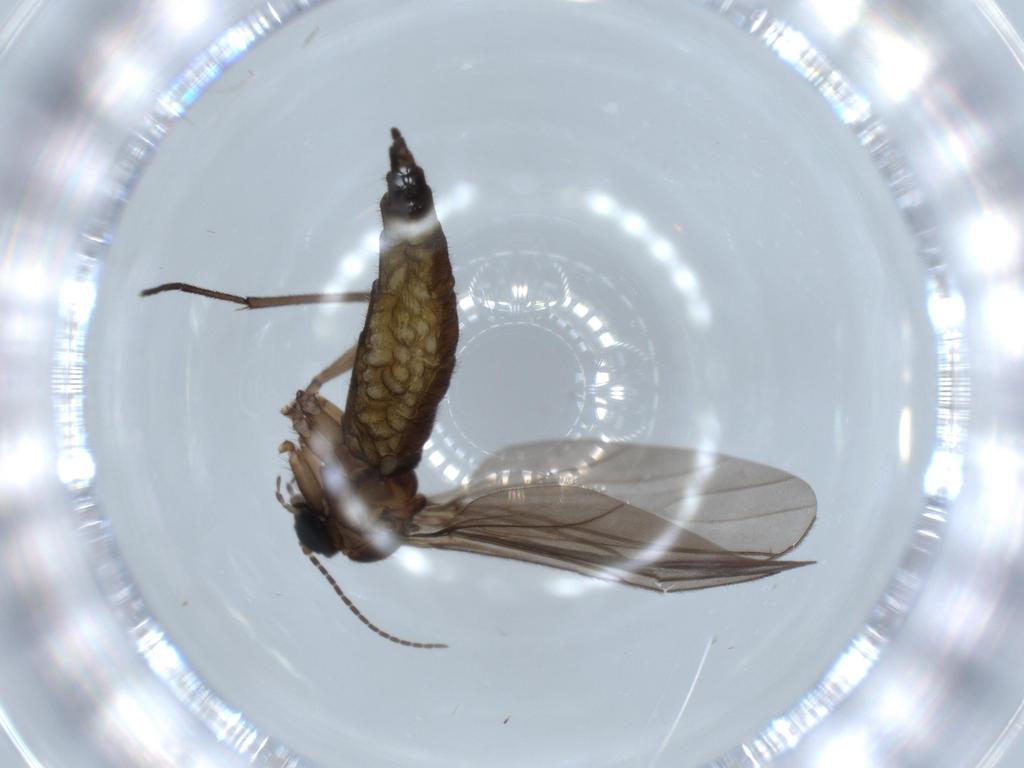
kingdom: Animalia
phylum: Arthropoda
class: Insecta
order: Diptera
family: Sciaridae
